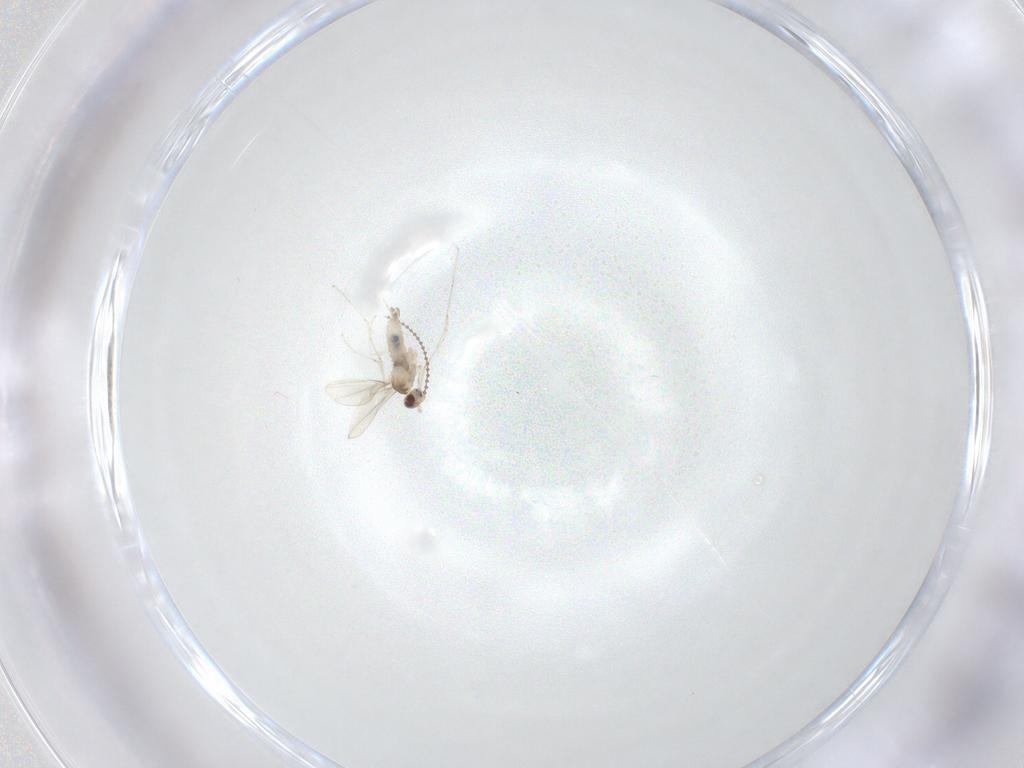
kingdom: Animalia
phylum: Arthropoda
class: Insecta
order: Diptera
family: Cecidomyiidae
